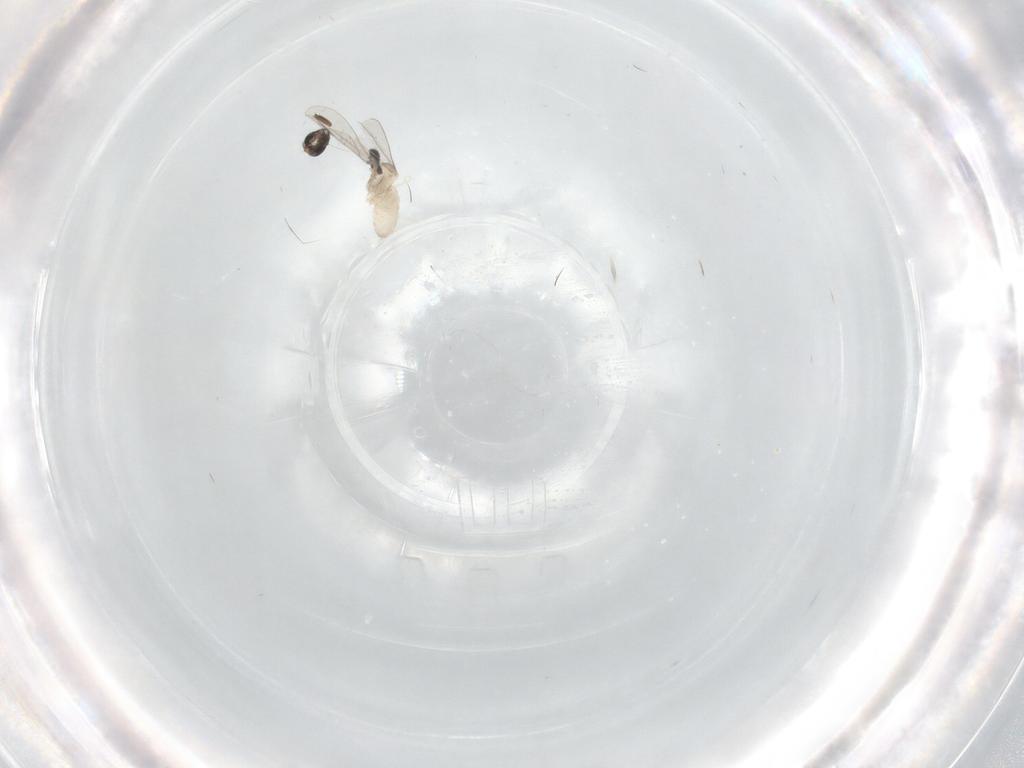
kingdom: Animalia
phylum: Arthropoda
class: Insecta
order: Diptera
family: Cecidomyiidae
